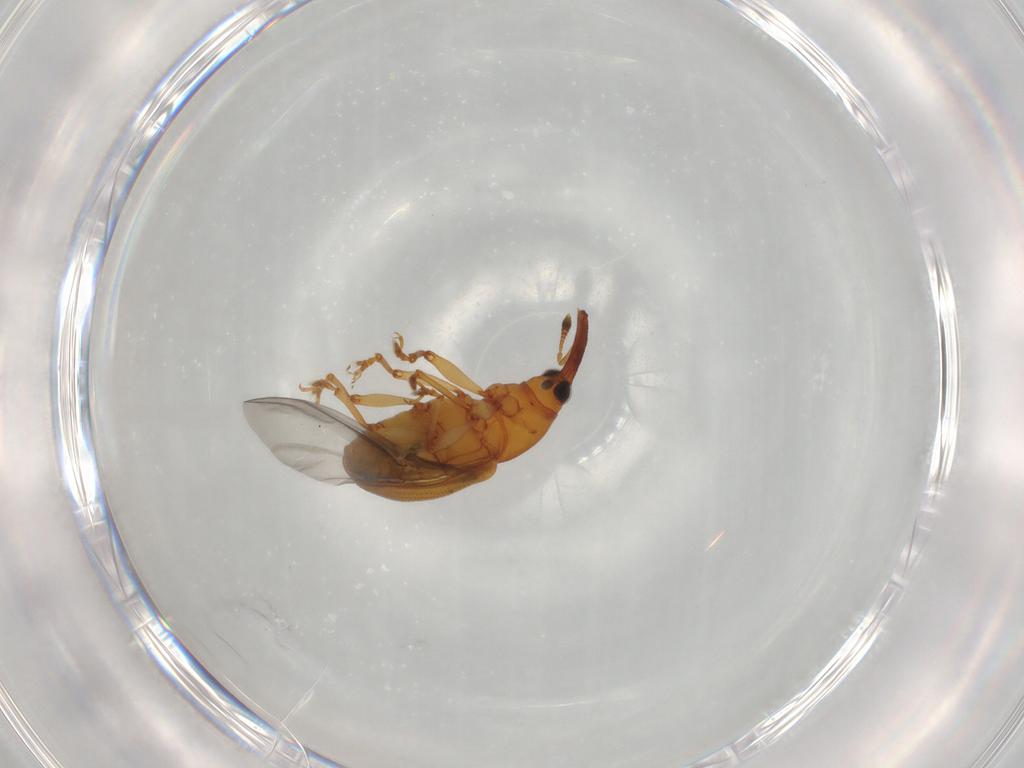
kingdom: Animalia
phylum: Arthropoda
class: Insecta
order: Coleoptera
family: Curculionidae
